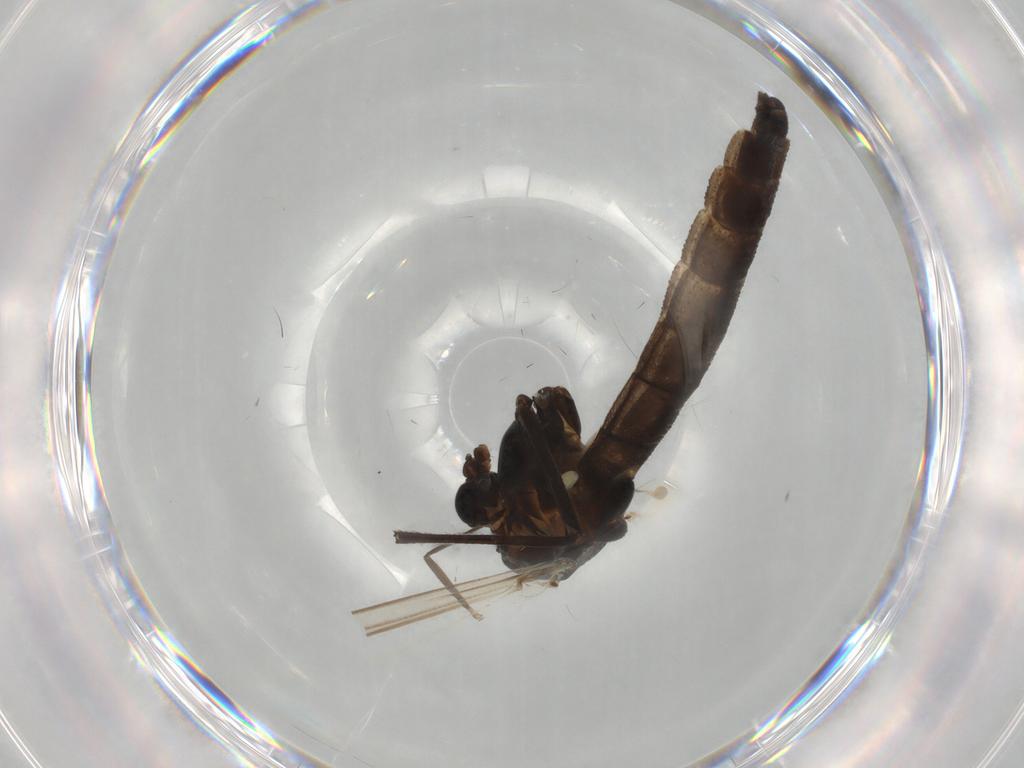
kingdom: Animalia
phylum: Arthropoda
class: Insecta
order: Diptera
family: Chironomidae
